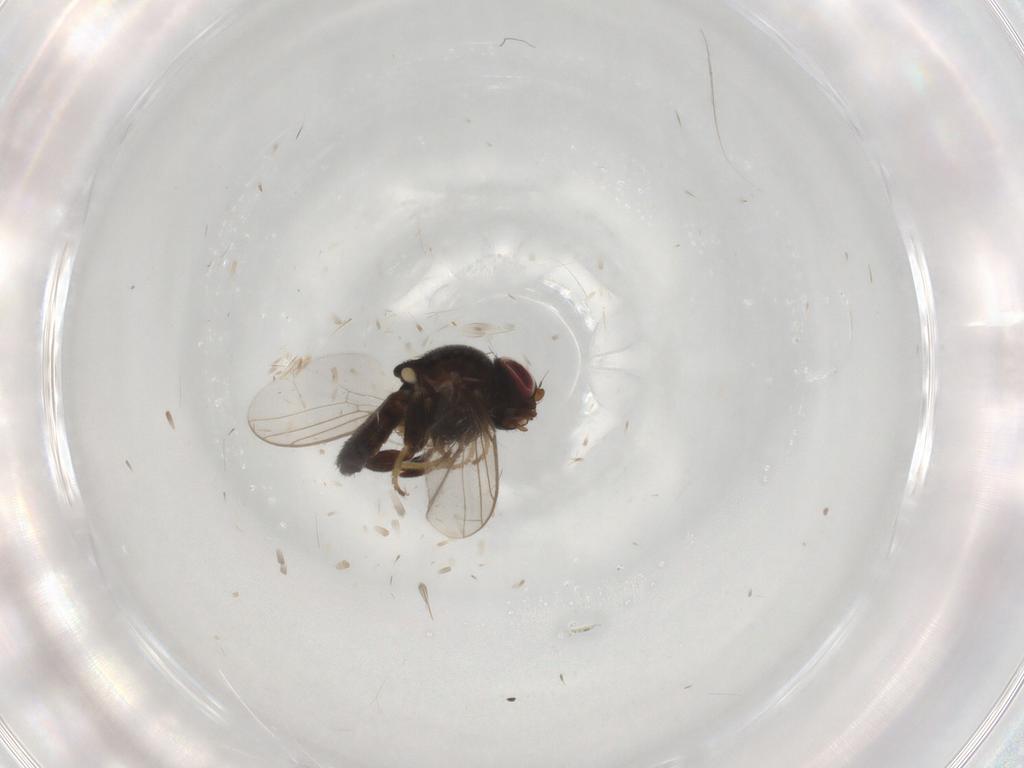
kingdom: Animalia
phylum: Arthropoda
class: Insecta
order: Diptera
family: Chloropidae
